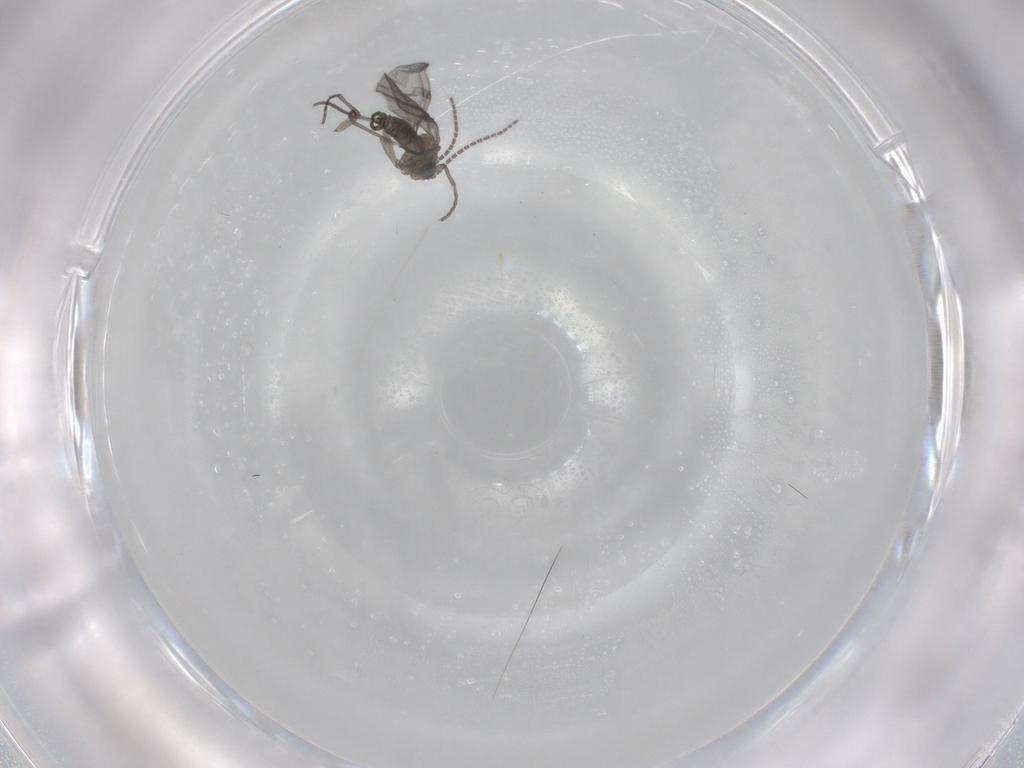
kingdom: Animalia
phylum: Arthropoda
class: Insecta
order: Diptera
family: Sciaridae
